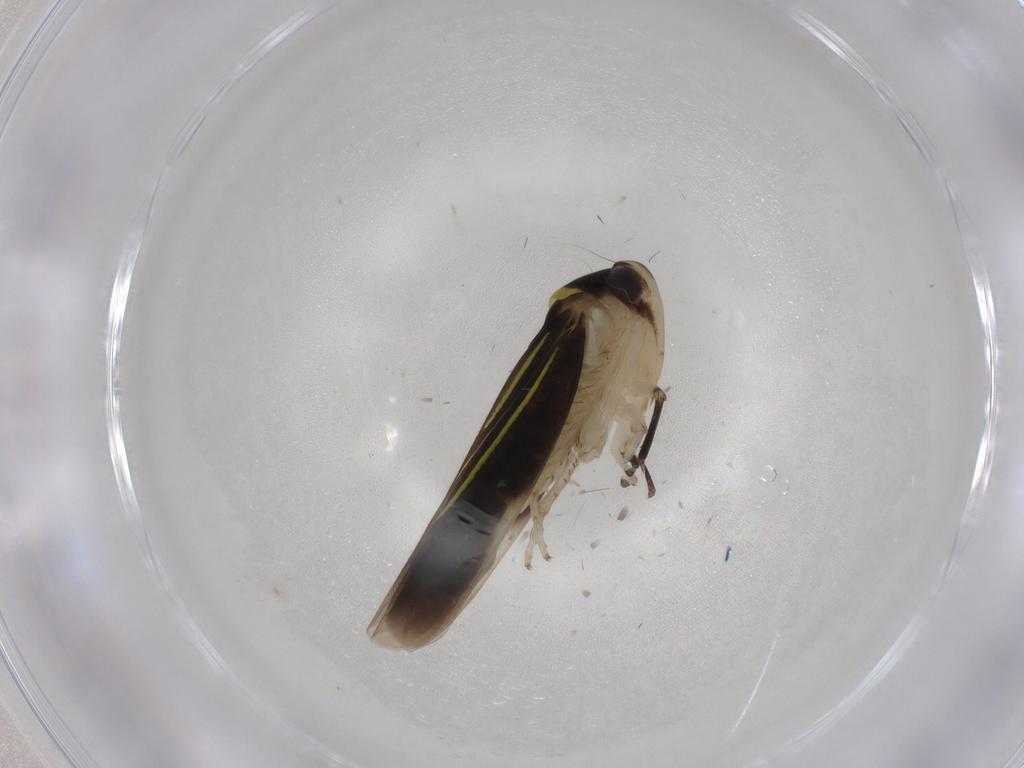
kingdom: Animalia
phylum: Arthropoda
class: Insecta
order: Hemiptera
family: Cicadellidae
